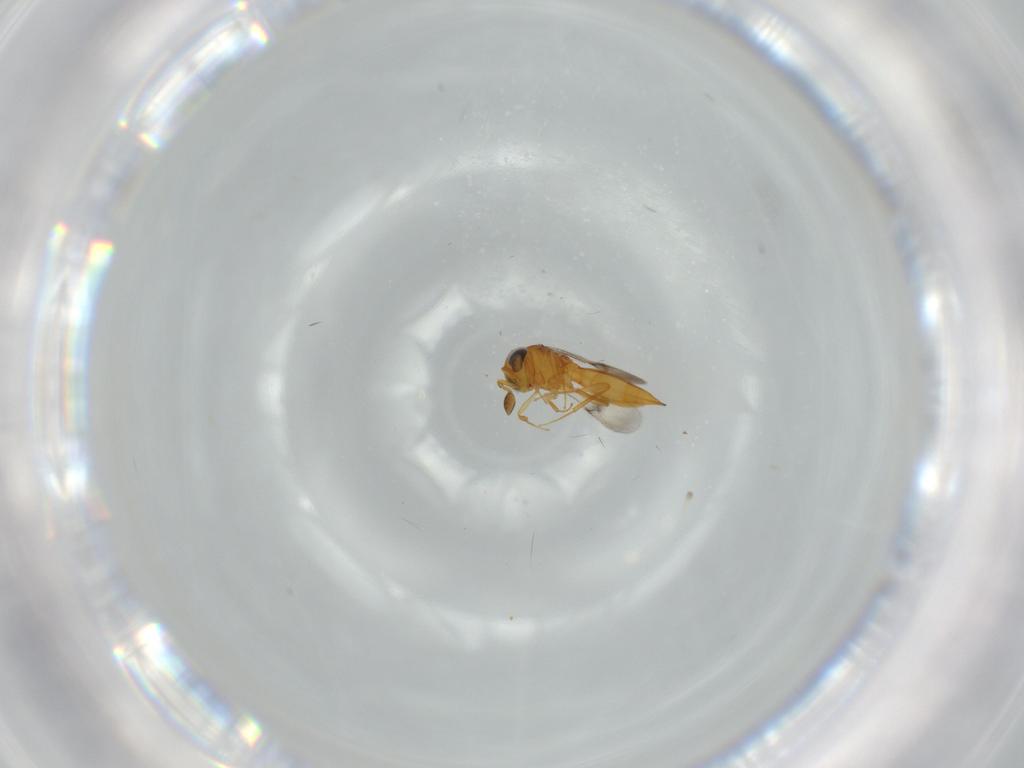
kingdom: Animalia
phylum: Arthropoda
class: Insecta
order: Hymenoptera
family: Scelionidae
